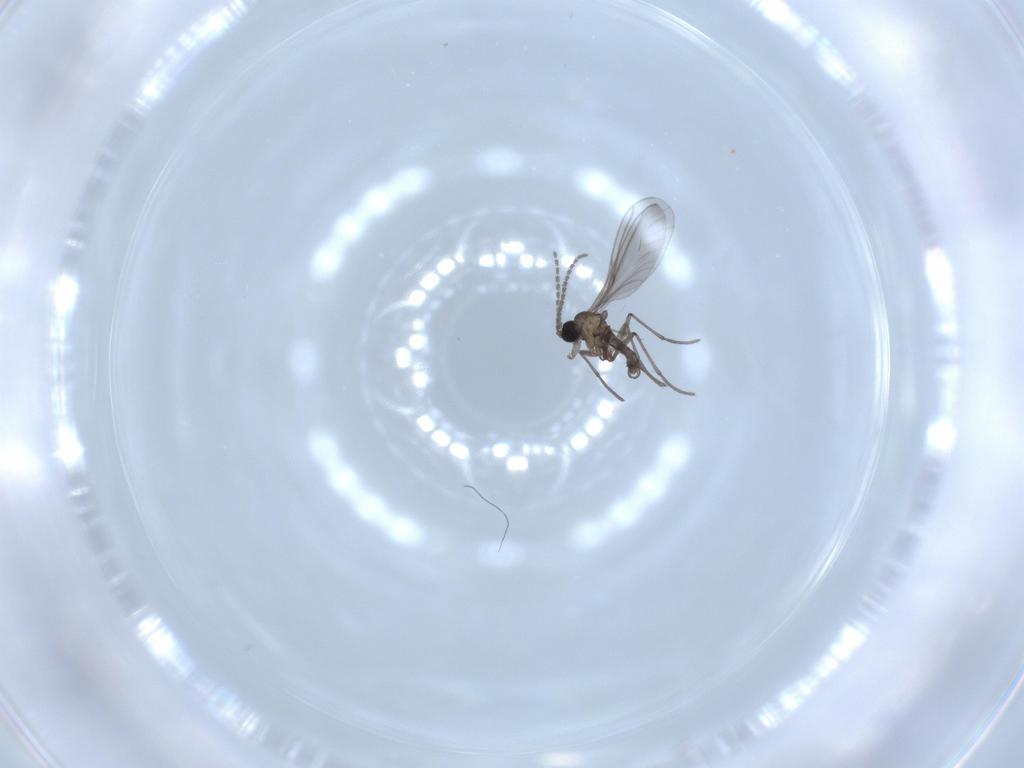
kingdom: Animalia
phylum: Arthropoda
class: Insecta
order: Diptera
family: Sciaridae
